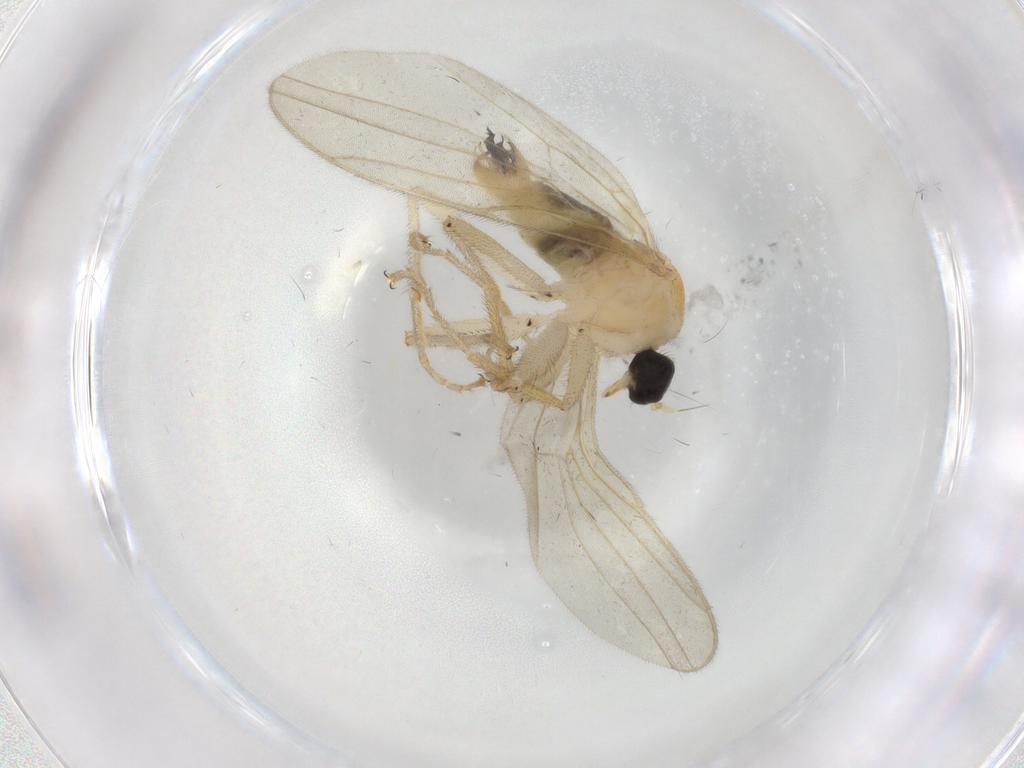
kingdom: Animalia
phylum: Arthropoda
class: Insecta
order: Diptera
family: Hybotidae
